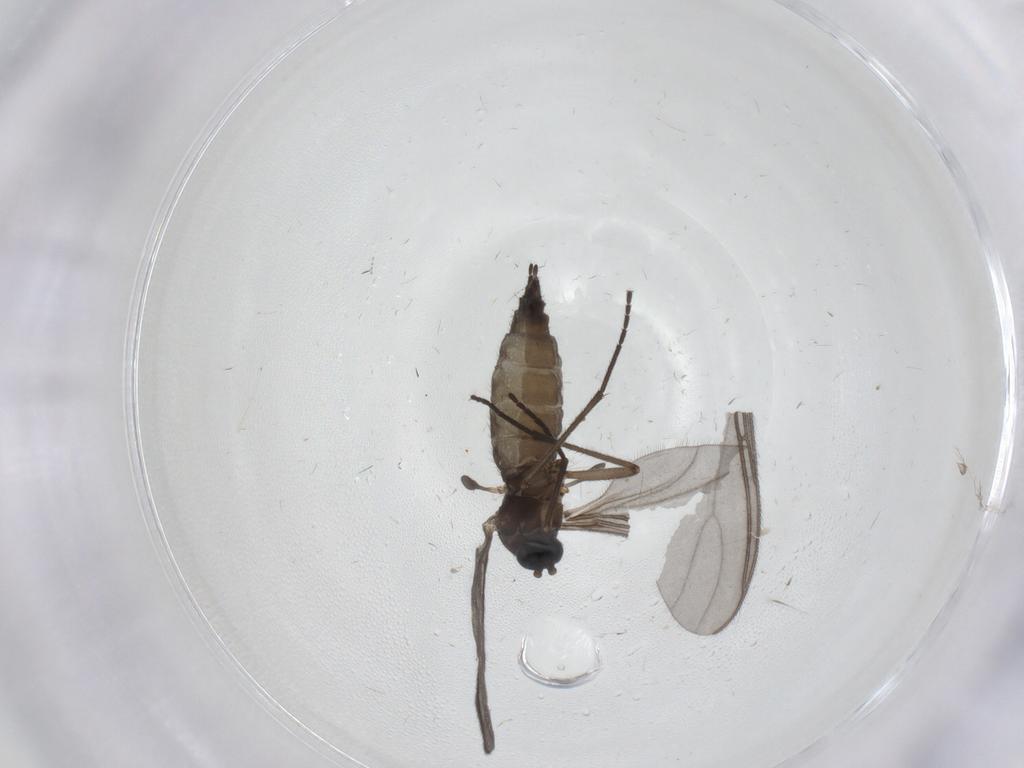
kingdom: Animalia
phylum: Arthropoda
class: Insecta
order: Diptera
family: Sciaridae
